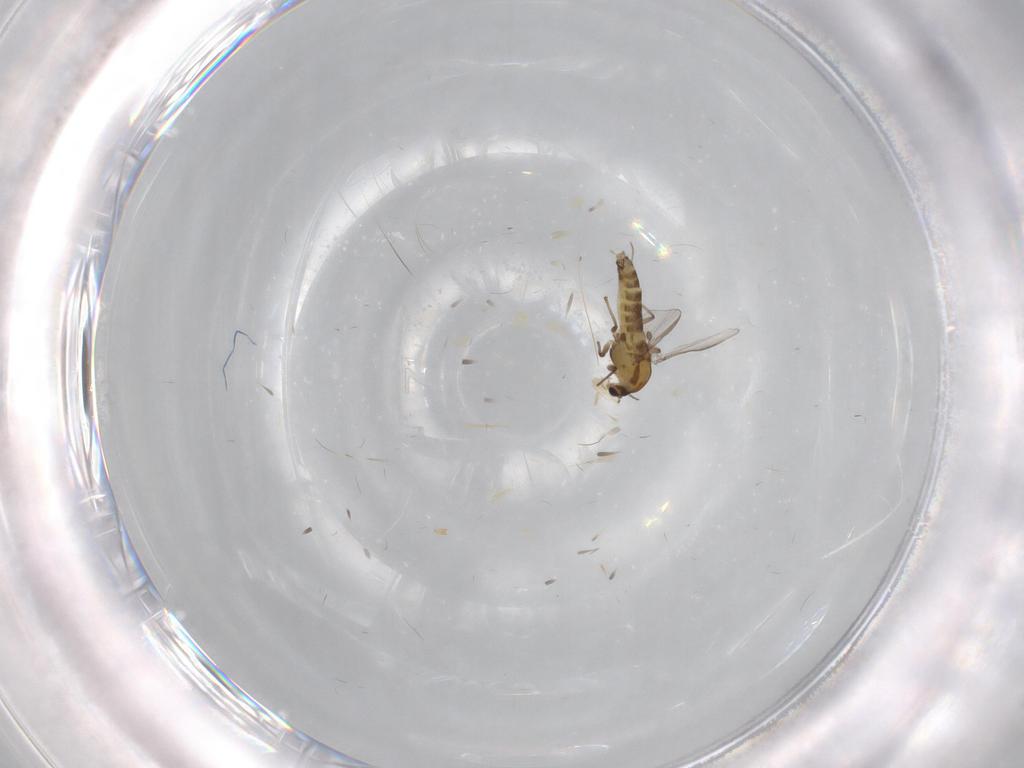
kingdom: Animalia
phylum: Arthropoda
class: Insecta
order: Diptera
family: Chironomidae
